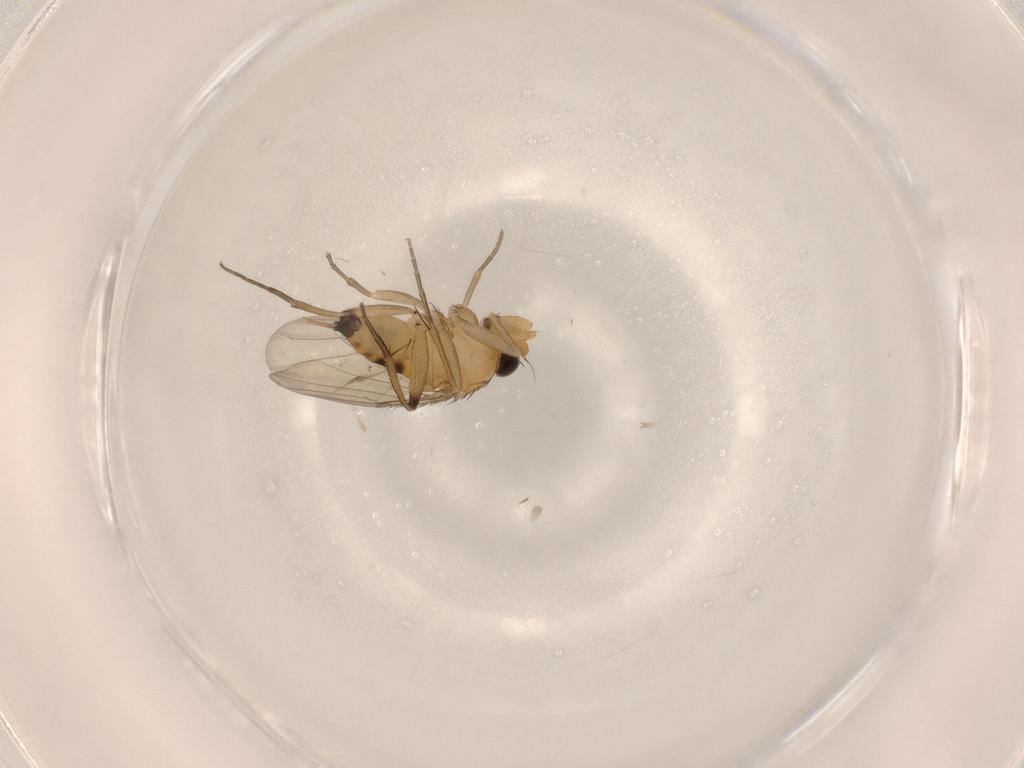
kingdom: Animalia
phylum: Arthropoda
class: Insecta
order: Diptera
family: Phoridae
